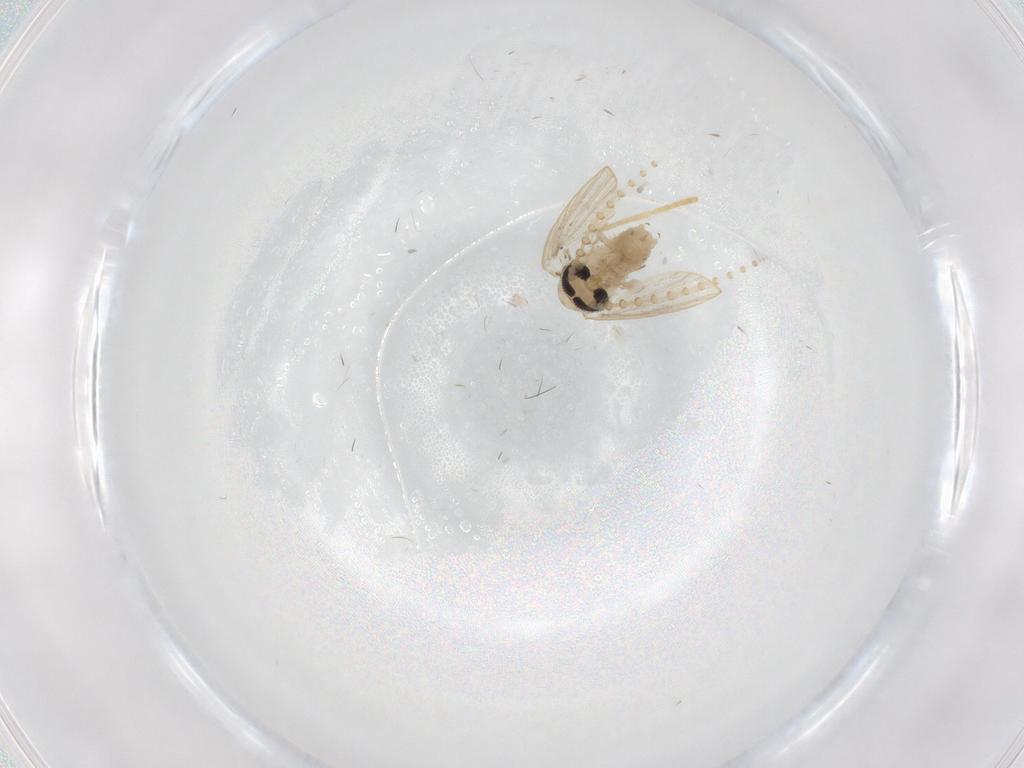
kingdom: Animalia
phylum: Arthropoda
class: Insecta
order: Diptera
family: Psychodidae
